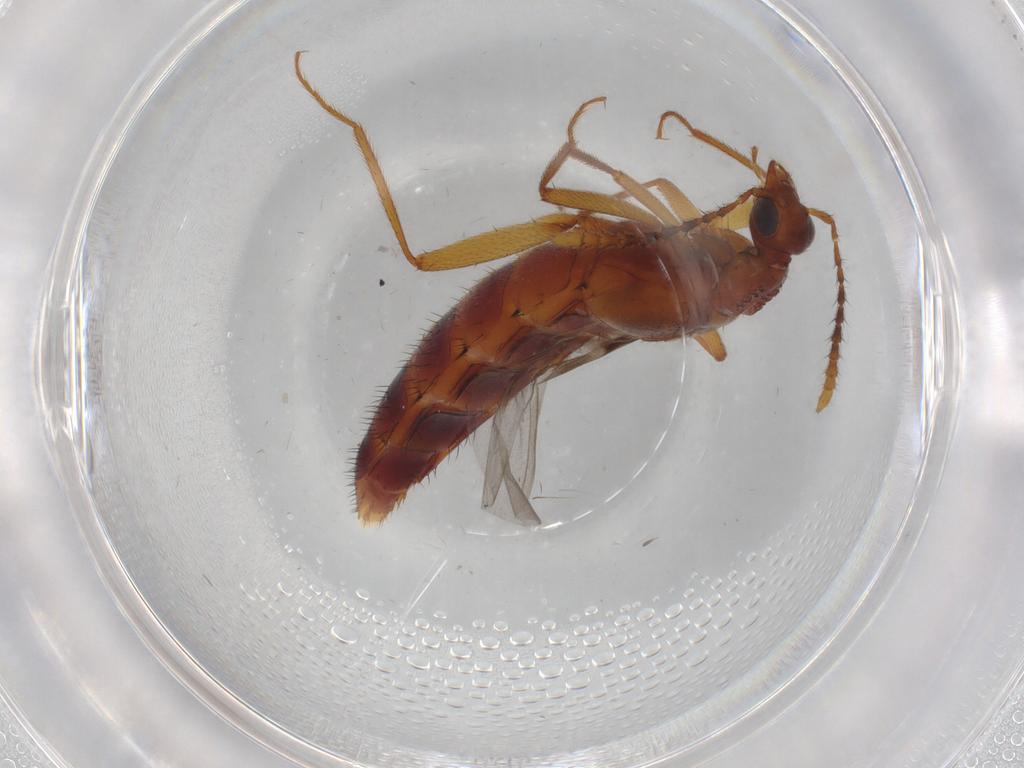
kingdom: Animalia
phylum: Arthropoda
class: Insecta
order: Coleoptera
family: Staphylinidae
